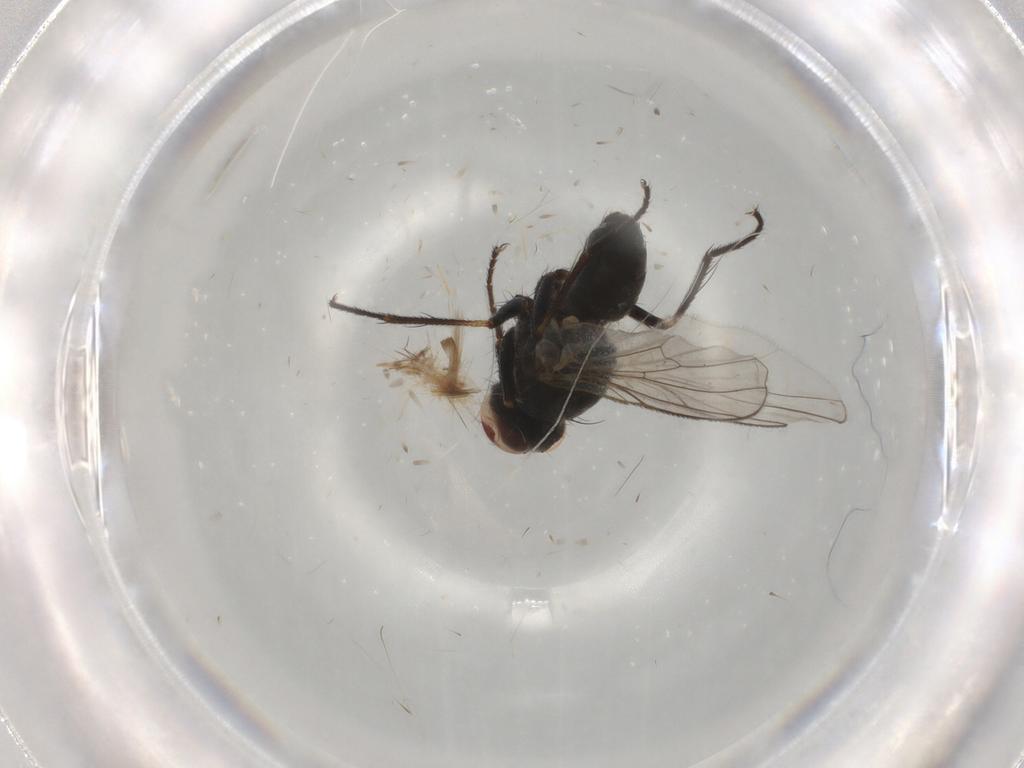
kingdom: Animalia
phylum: Arthropoda
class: Insecta
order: Diptera
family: Muscidae
